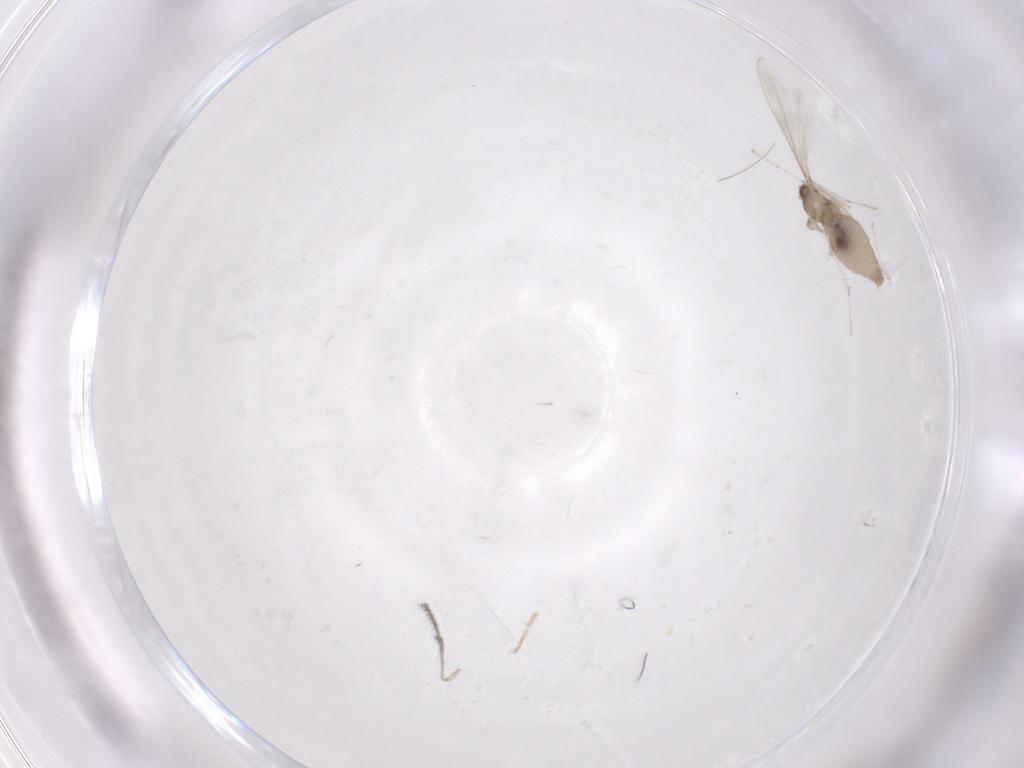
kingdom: Animalia
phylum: Arthropoda
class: Insecta
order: Diptera
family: Cecidomyiidae
